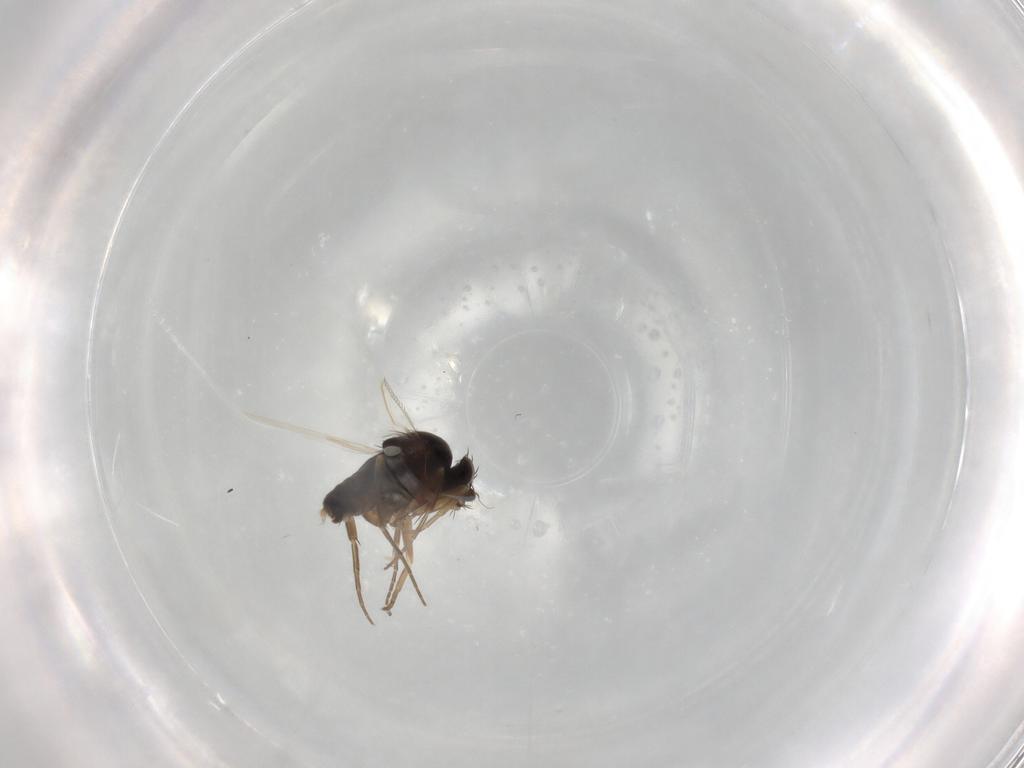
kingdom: Animalia
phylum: Arthropoda
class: Insecta
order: Diptera
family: Phoridae
